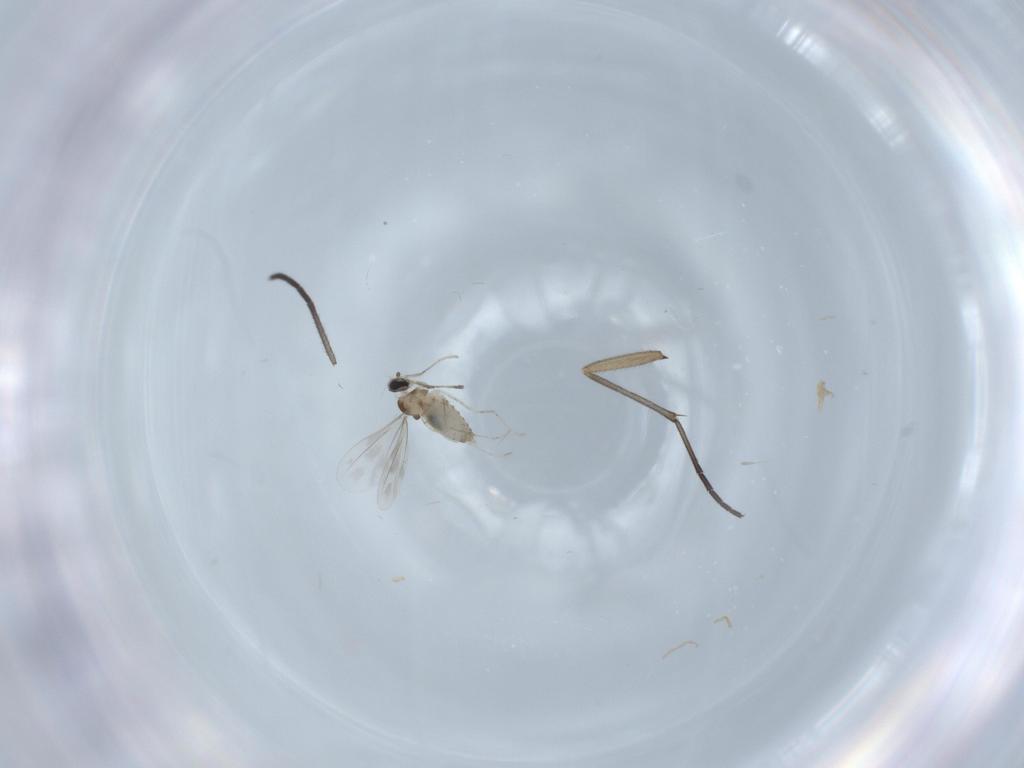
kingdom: Animalia
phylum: Arthropoda
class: Insecta
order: Diptera
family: Cecidomyiidae
